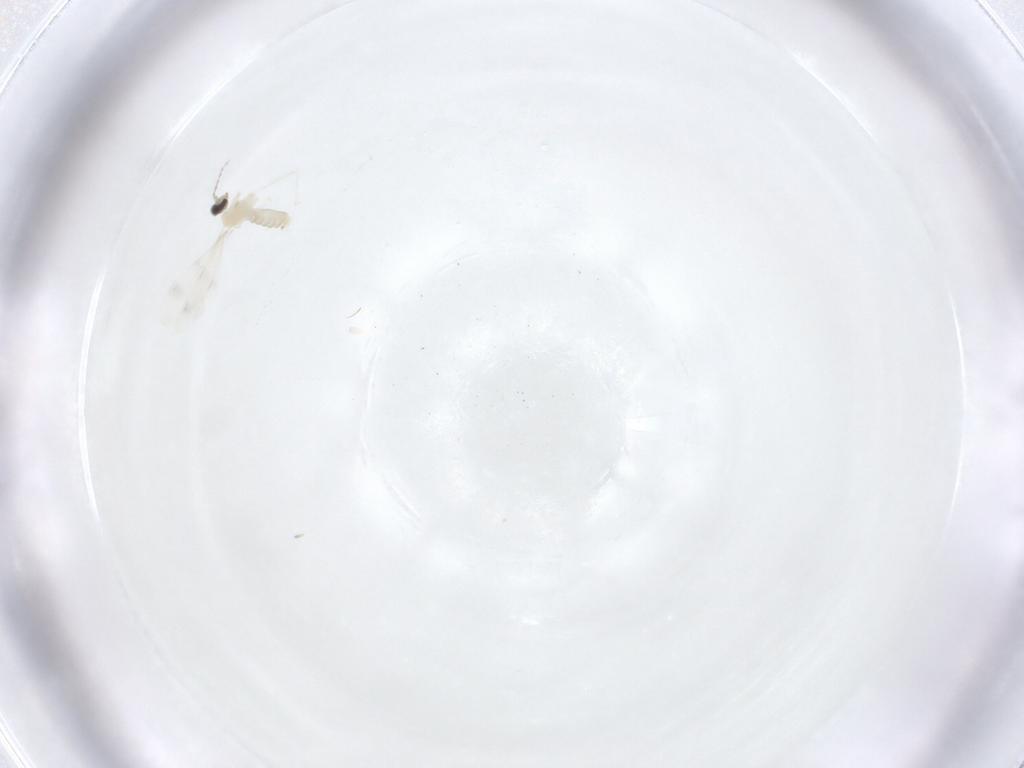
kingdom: Animalia
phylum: Arthropoda
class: Insecta
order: Diptera
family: Cecidomyiidae
